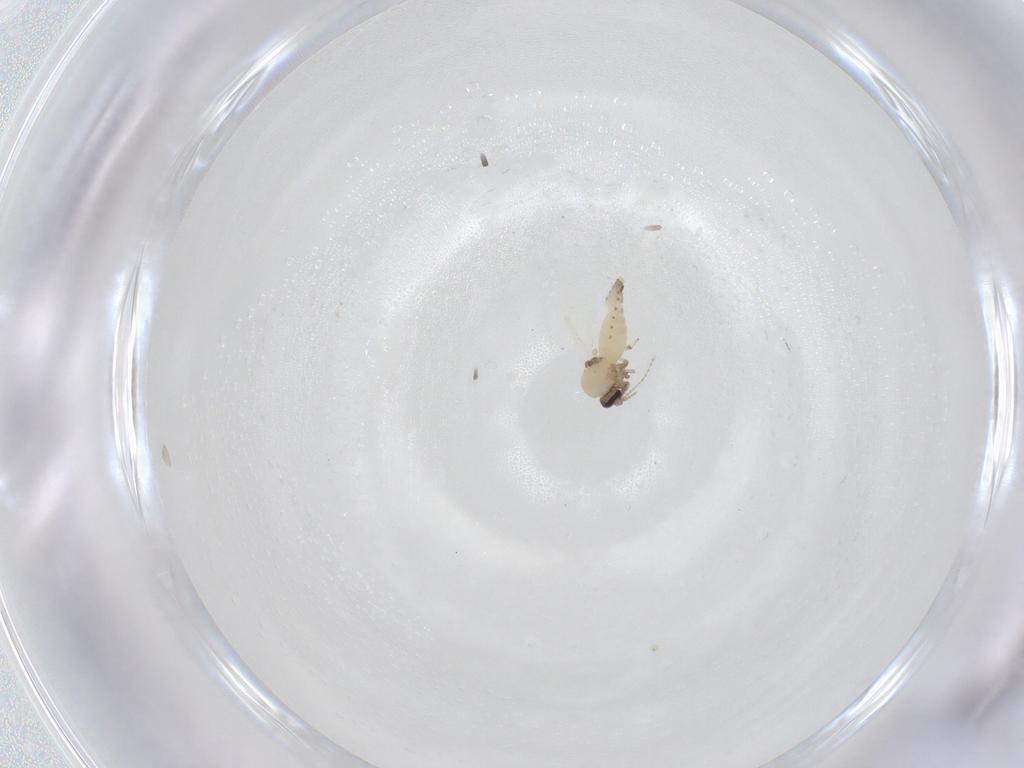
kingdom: Animalia
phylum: Arthropoda
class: Insecta
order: Diptera
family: Ceratopogonidae
